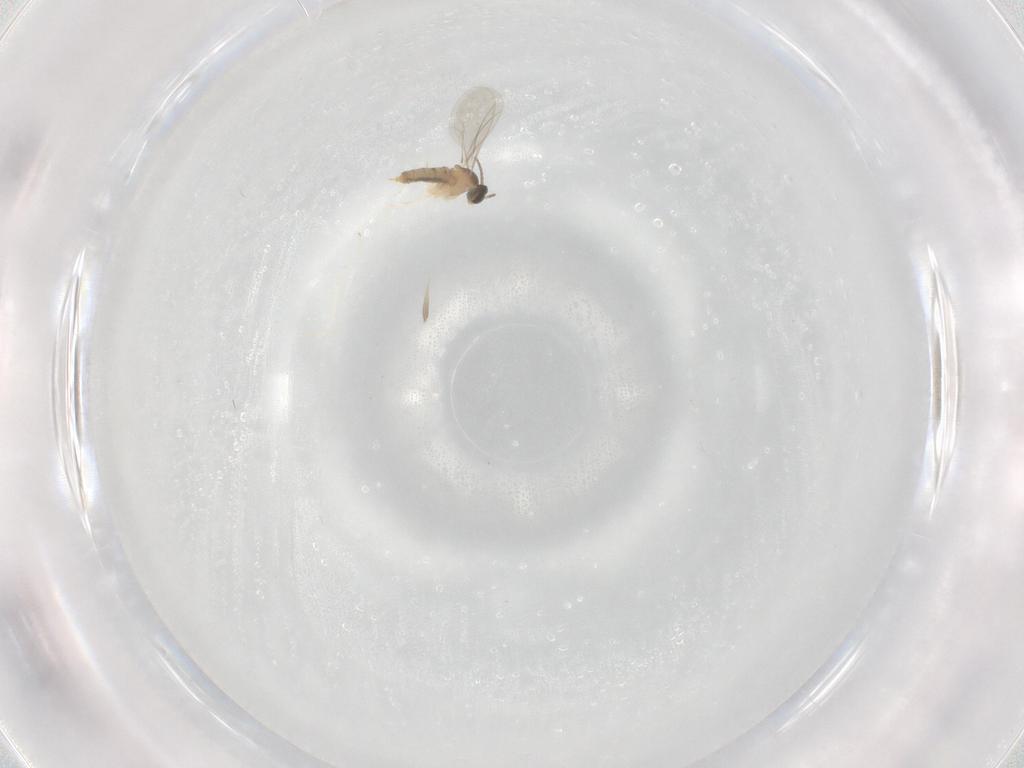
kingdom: Animalia
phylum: Arthropoda
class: Insecta
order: Diptera
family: Cecidomyiidae
